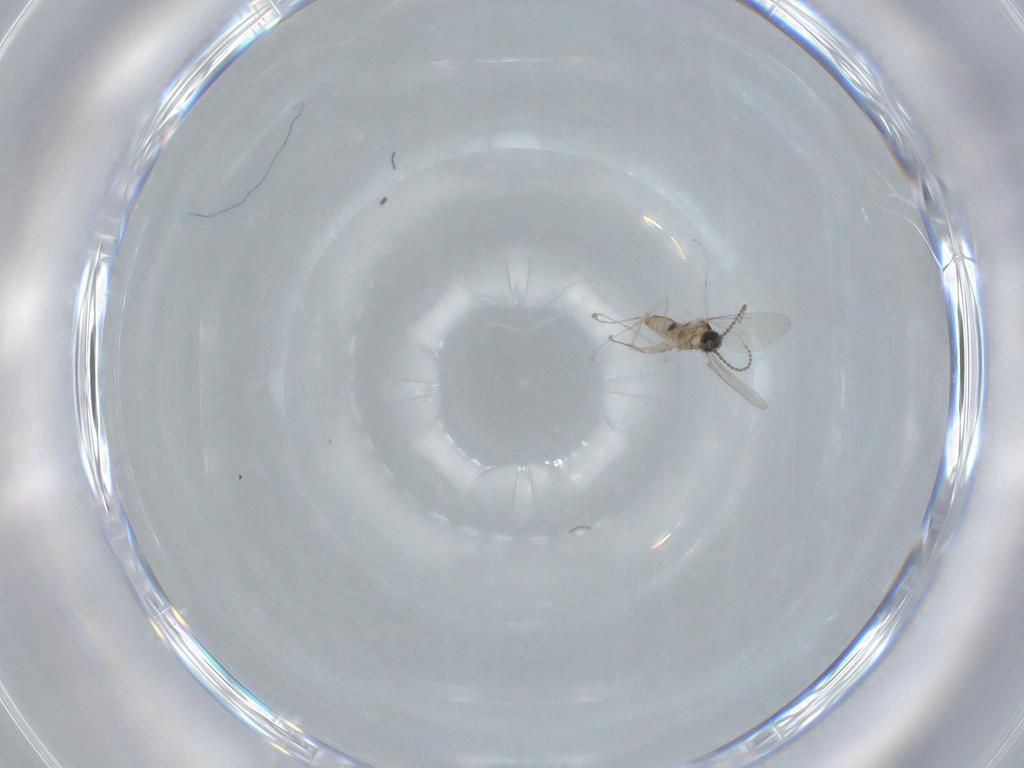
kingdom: Animalia
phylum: Arthropoda
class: Insecta
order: Diptera
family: Cecidomyiidae
